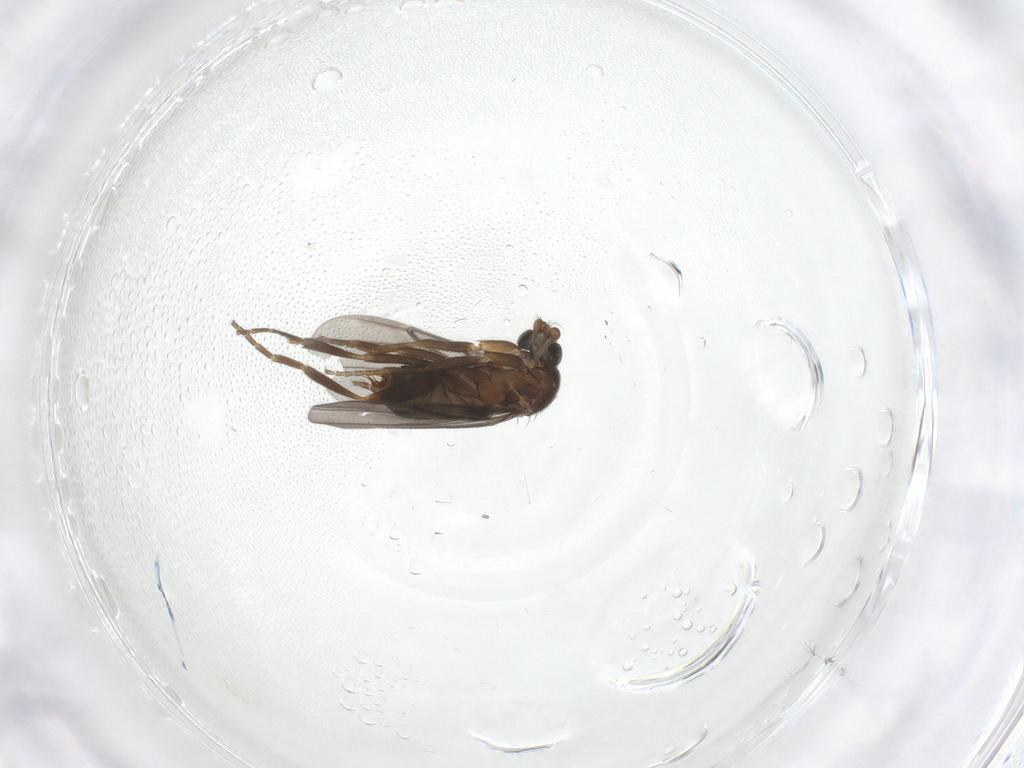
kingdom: Animalia
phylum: Arthropoda
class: Insecta
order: Diptera
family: Phoridae
